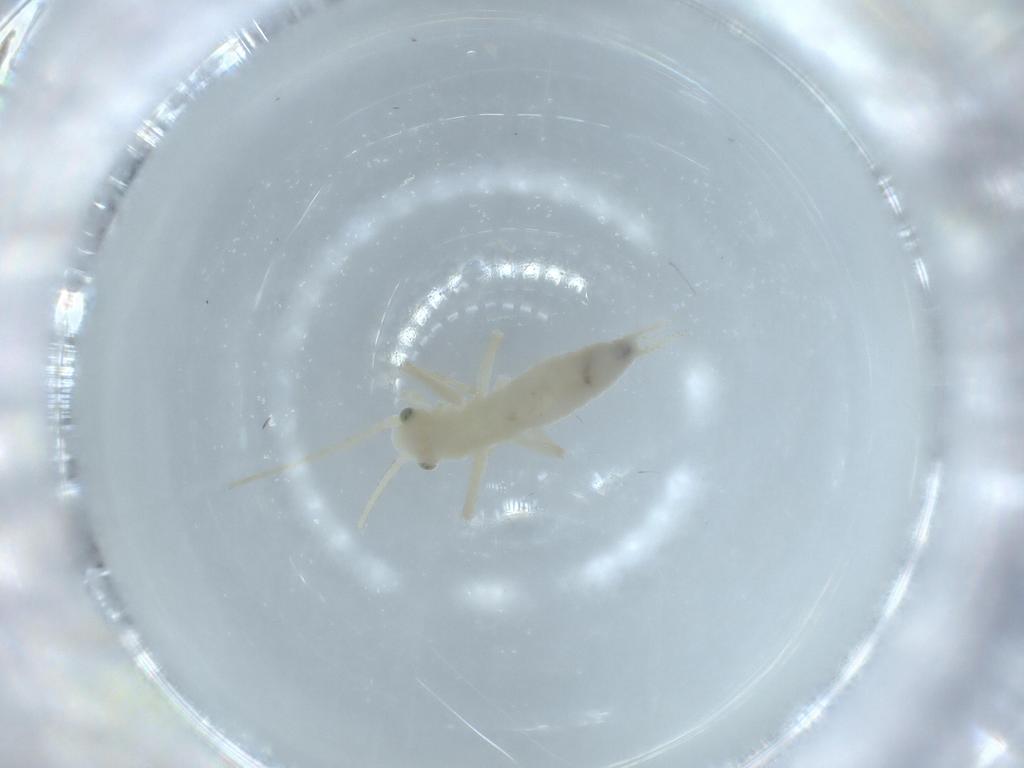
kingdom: Animalia
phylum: Arthropoda
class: Insecta
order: Orthoptera
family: Trigonidiidae
